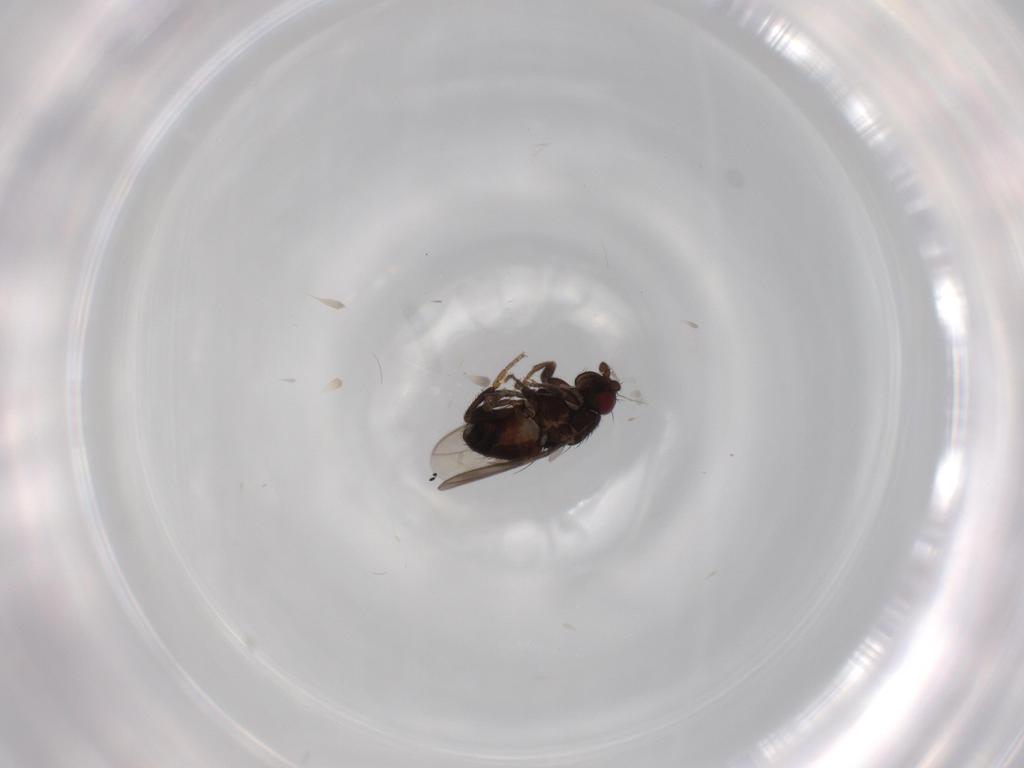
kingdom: Animalia
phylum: Arthropoda
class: Insecta
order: Diptera
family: Sphaeroceridae
